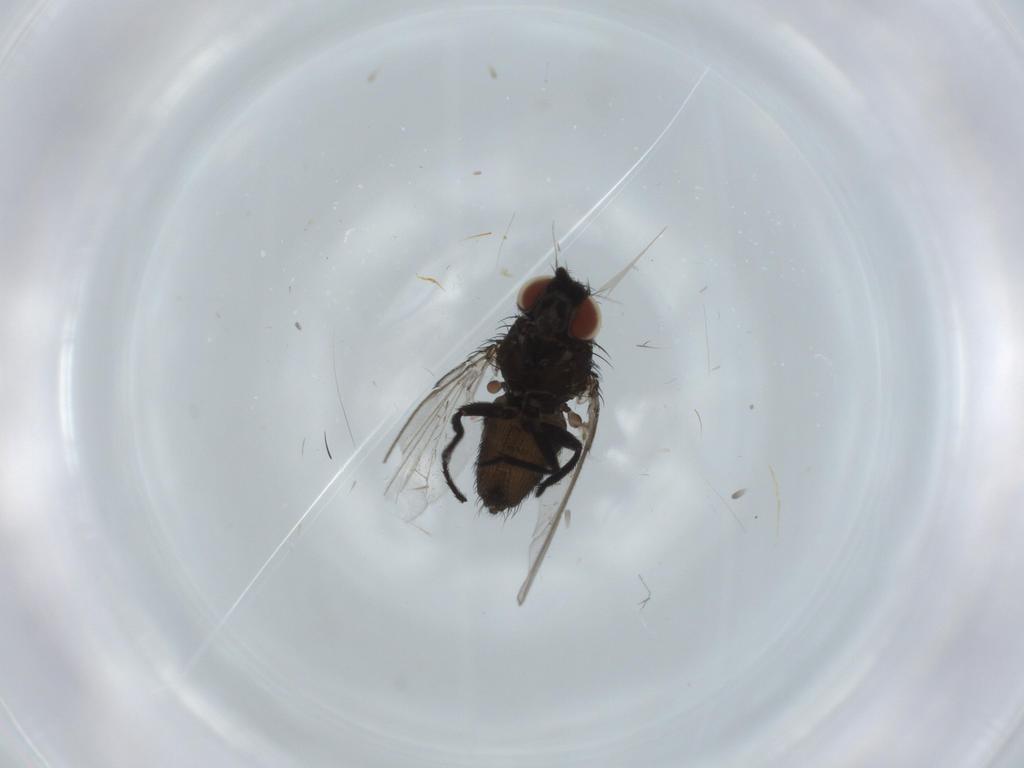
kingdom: Animalia
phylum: Arthropoda
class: Insecta
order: Diptera
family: Milichiidae
